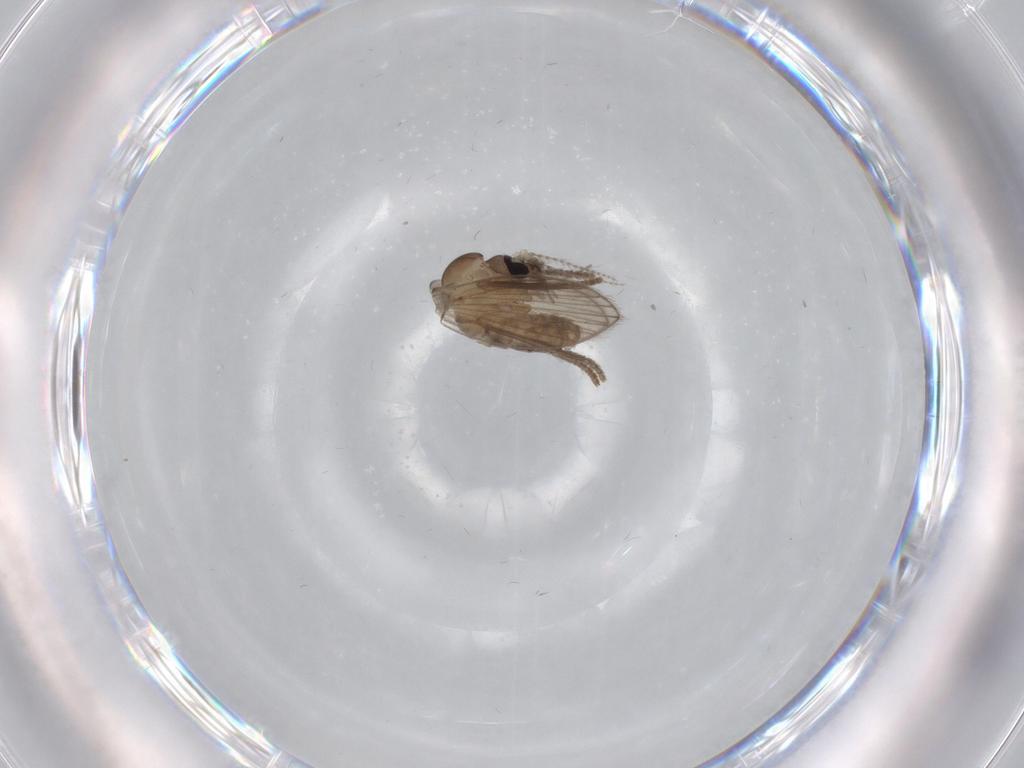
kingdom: Animalia
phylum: Arthropoda
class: Insecta
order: Diptera
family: Psychodidae
